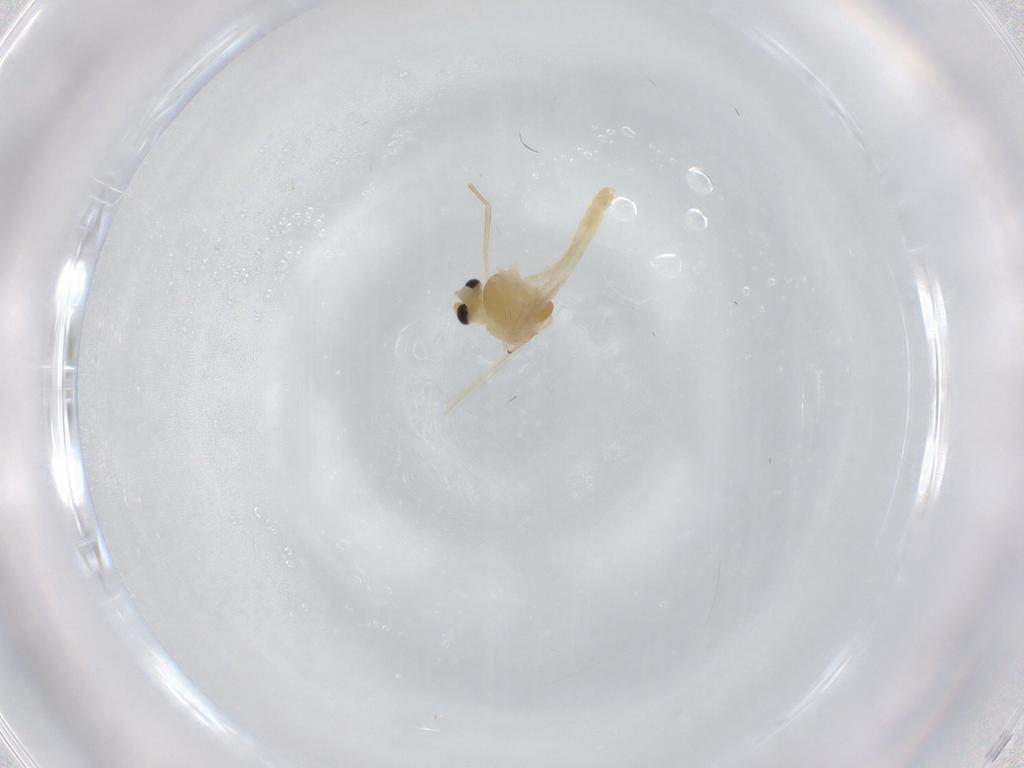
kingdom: Animalia
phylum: Arthropoda
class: Insecta
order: Diptera
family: Chironomidae
